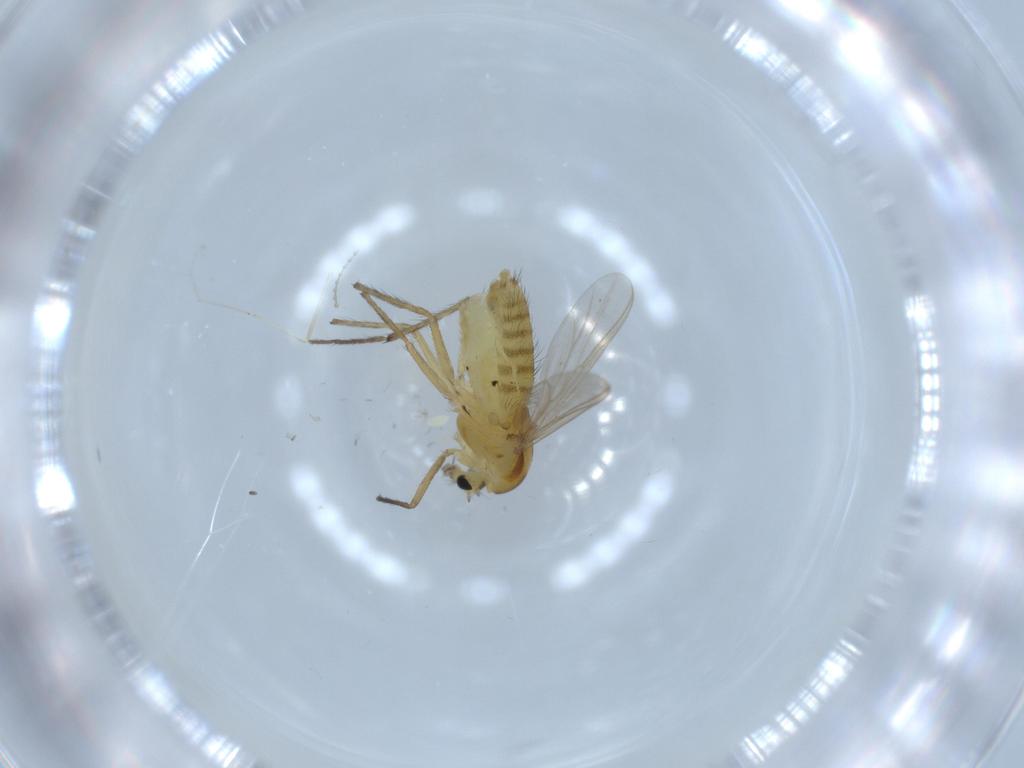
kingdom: Animalia
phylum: Arthropoda
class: Insecta
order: Diptera
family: Chironomidae
